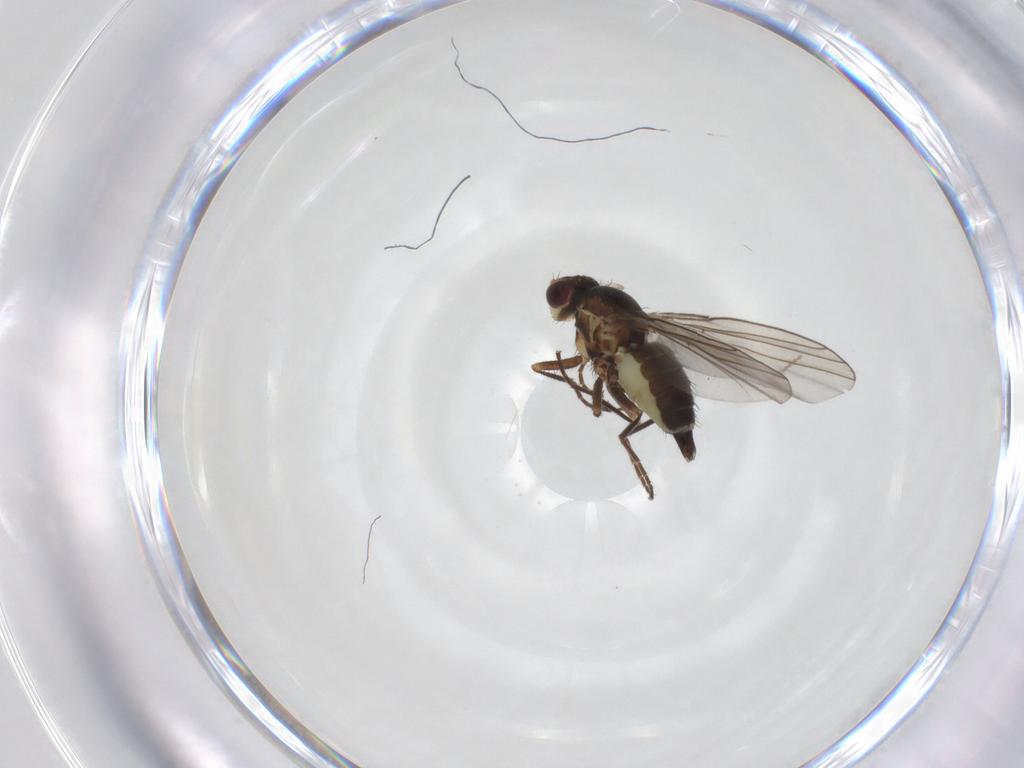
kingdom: Animalia
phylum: Arthropoda
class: Insecta
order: Diptera
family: Agromyzidae
